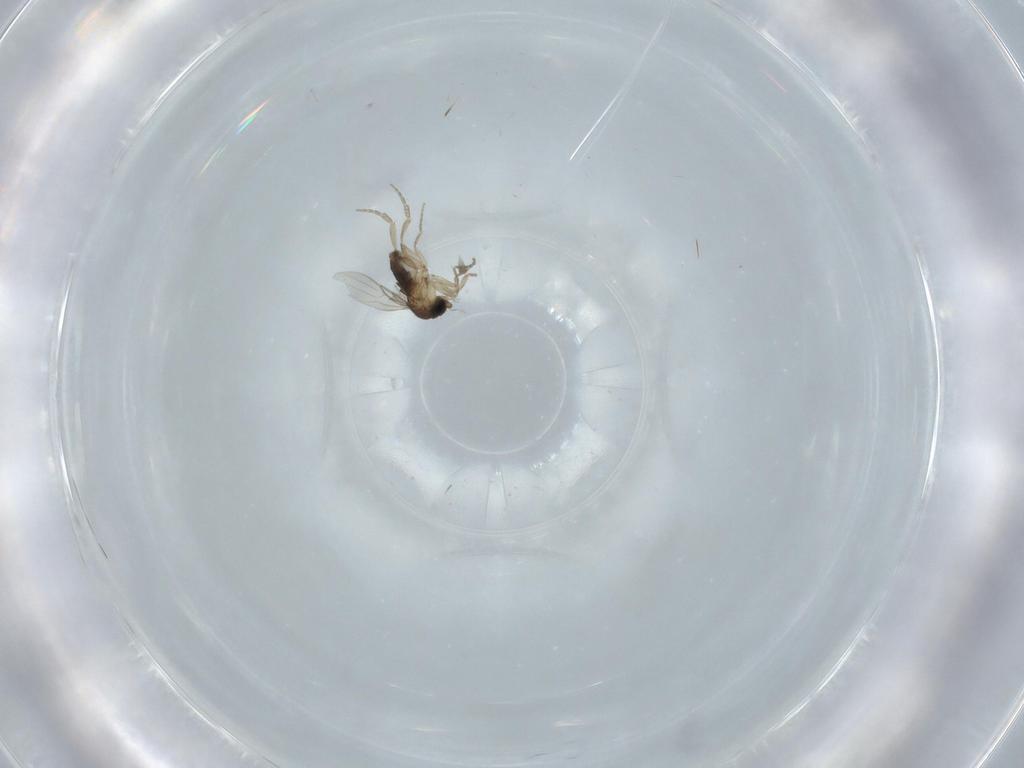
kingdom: Animalia
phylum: Arthropoda
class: Insecta
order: Diptera
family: Phoridae
